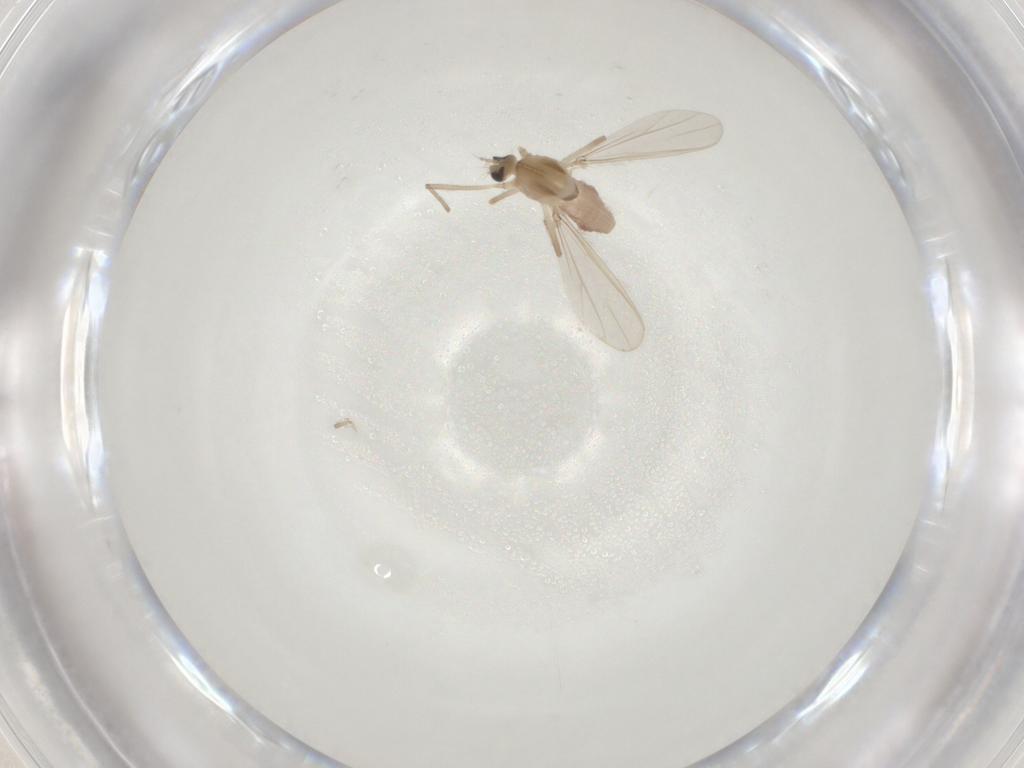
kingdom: Animalia
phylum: Arthropoda
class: Insecta
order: Diptera
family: Chironomidae
